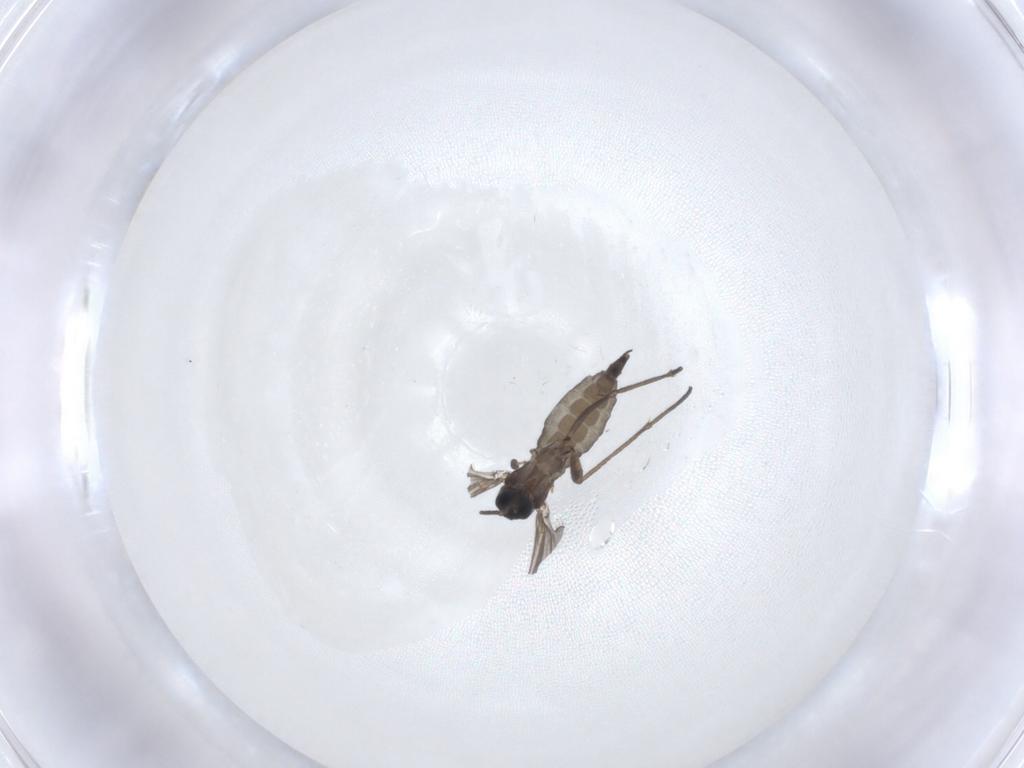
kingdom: Animalia
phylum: Arthropoda
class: Insecta
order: Diptera
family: Sciaridae
